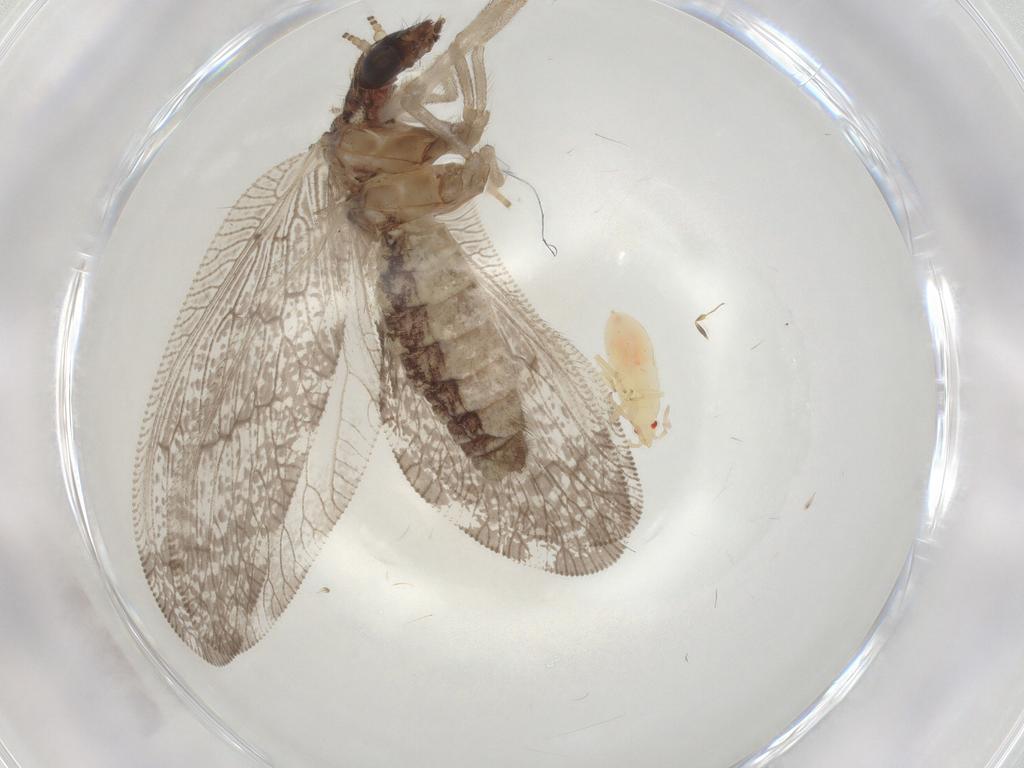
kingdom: Animalia
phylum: Arthropoda
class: Insecta
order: Diptera
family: Calliphoridae
